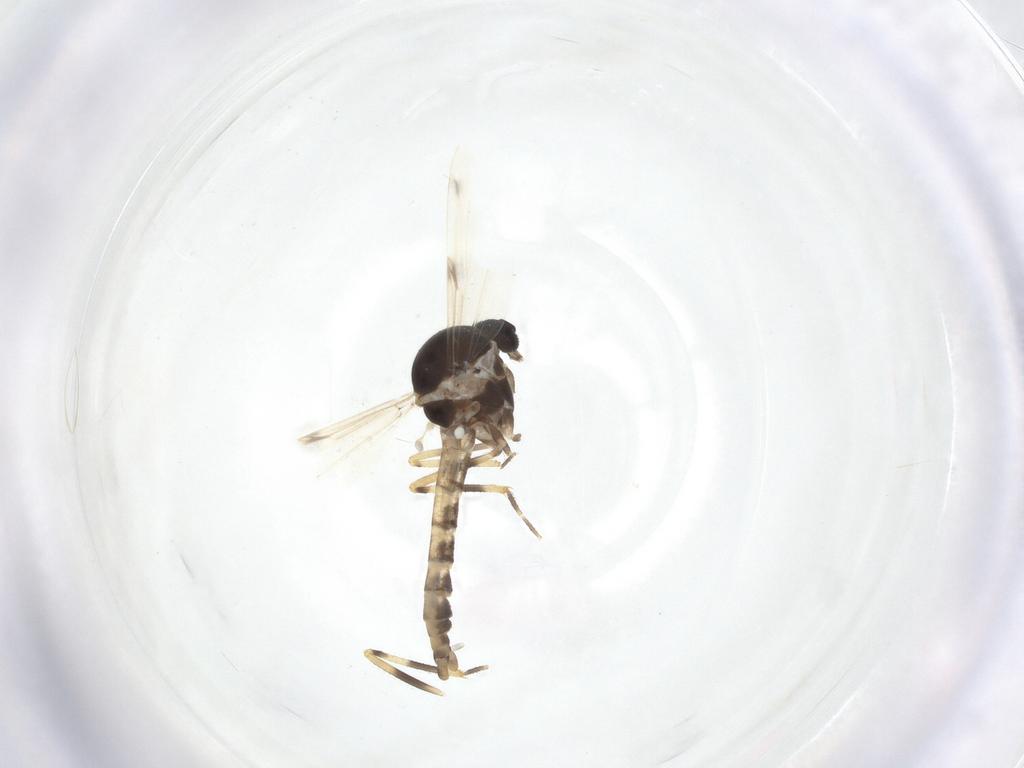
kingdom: Animalia
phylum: Arthropoda
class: Insecta
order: Diptera
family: Ceratopogonidae
